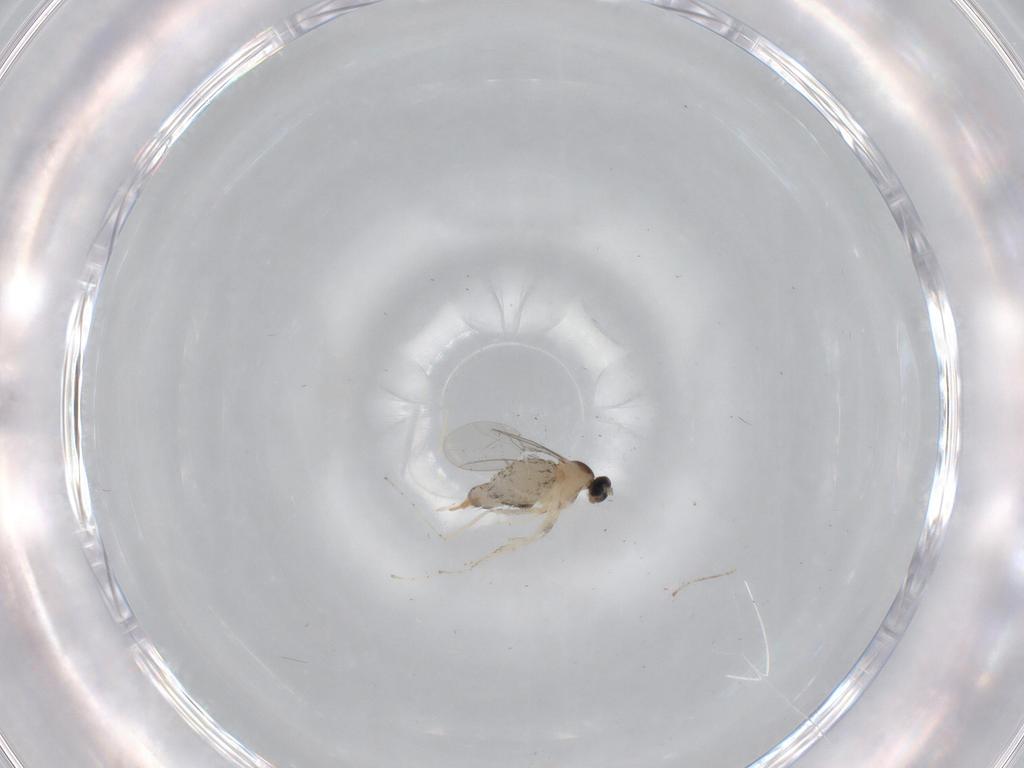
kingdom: Animalia
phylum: Arthropoda
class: Insecta
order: Diptera
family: Cecidomyiidae
